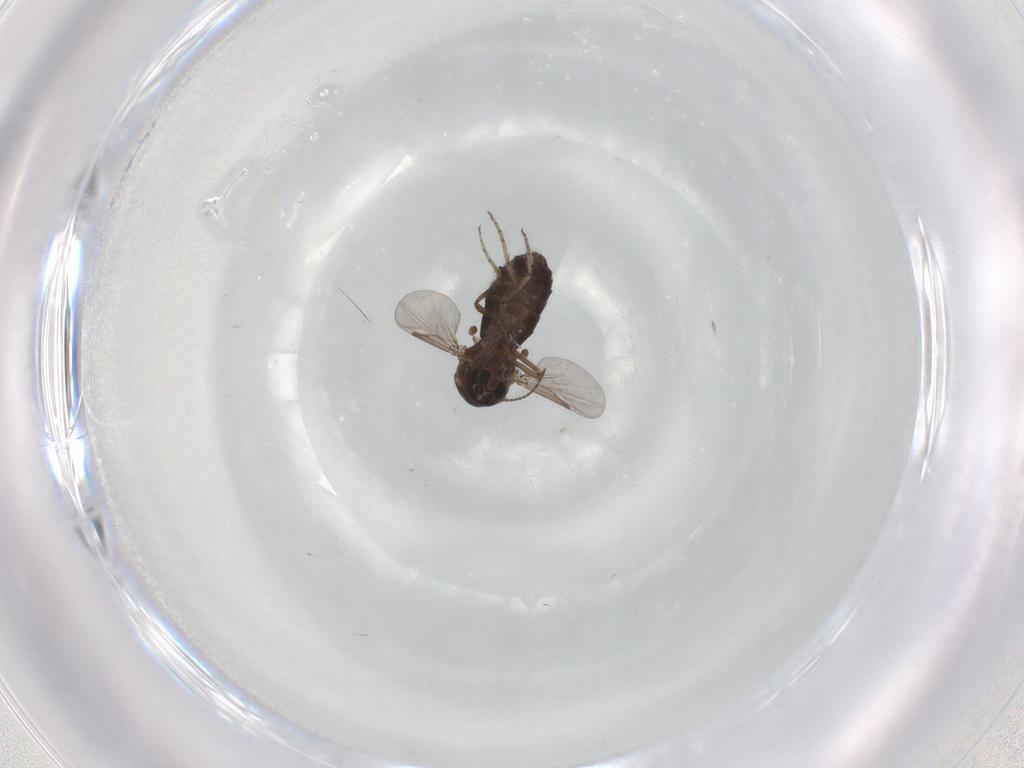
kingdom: Animalia
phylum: Arthropoda
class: Insecta
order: Diptera
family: Ceratopogonidae
